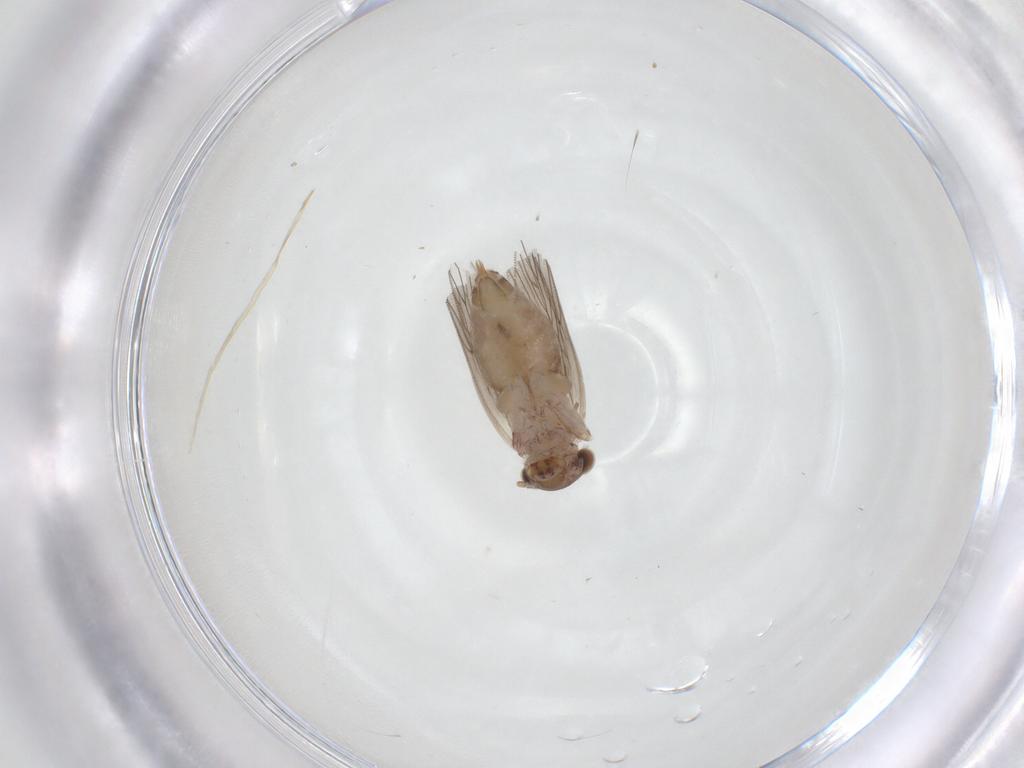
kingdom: Animalia
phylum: Arthropoda
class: Insecta
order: Psocodea
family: Lepidopsocidae
